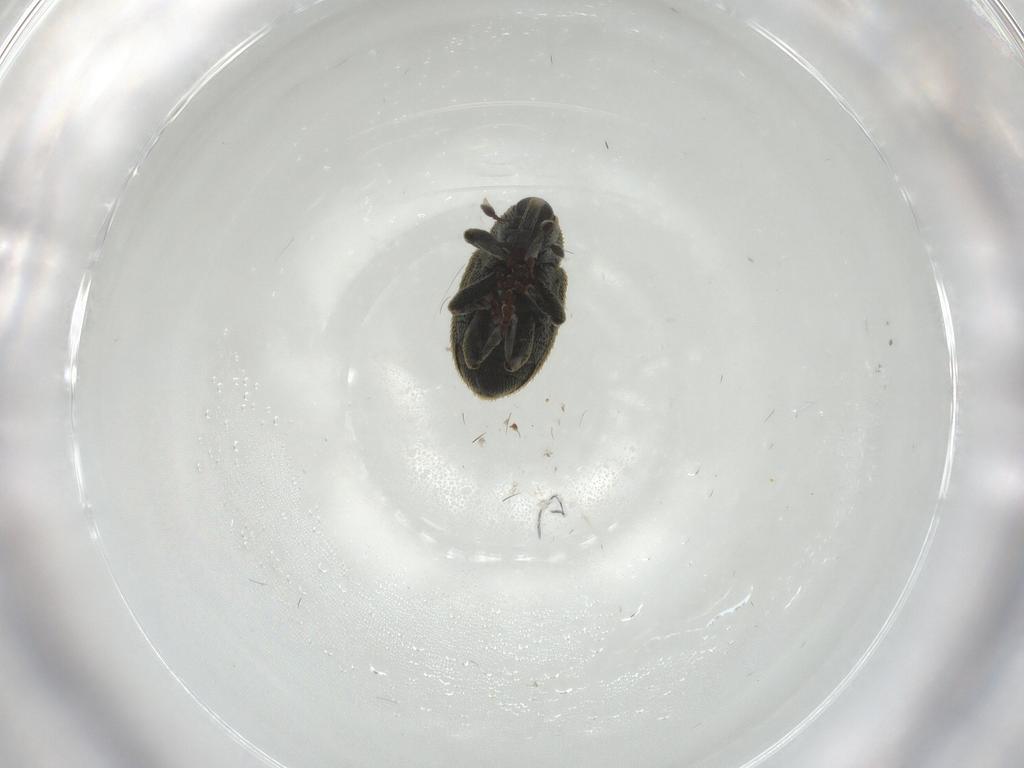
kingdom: Animalia
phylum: Arthropoda
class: Insecta
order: Coleoptera
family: Curculionidae
